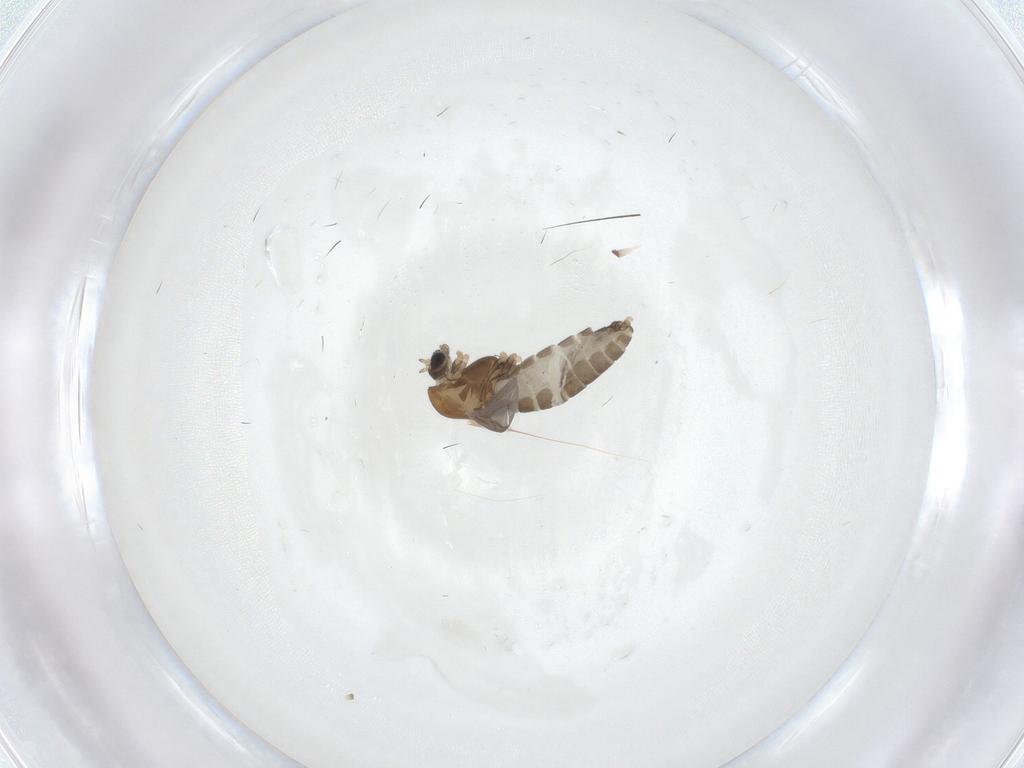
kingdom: Animalia
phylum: Arthropoda
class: Insecta
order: Diptera
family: Chironomidae
